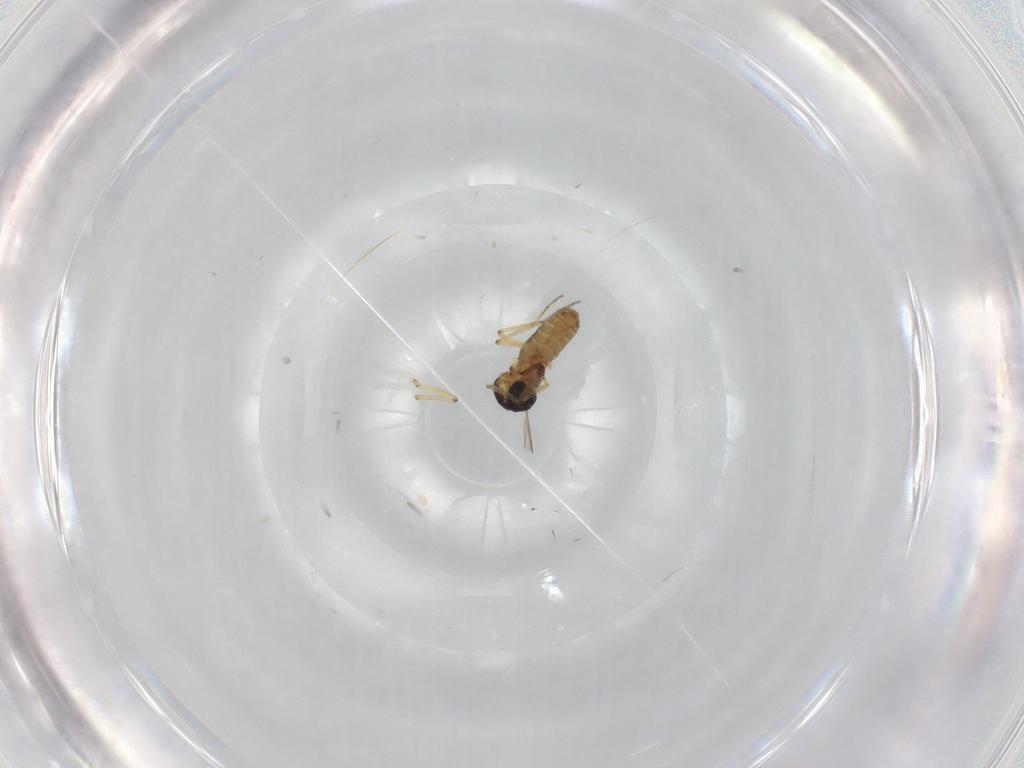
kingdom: Animalia
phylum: Arthropoda
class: Insecta
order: Diptera
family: Ceratopogonidae
